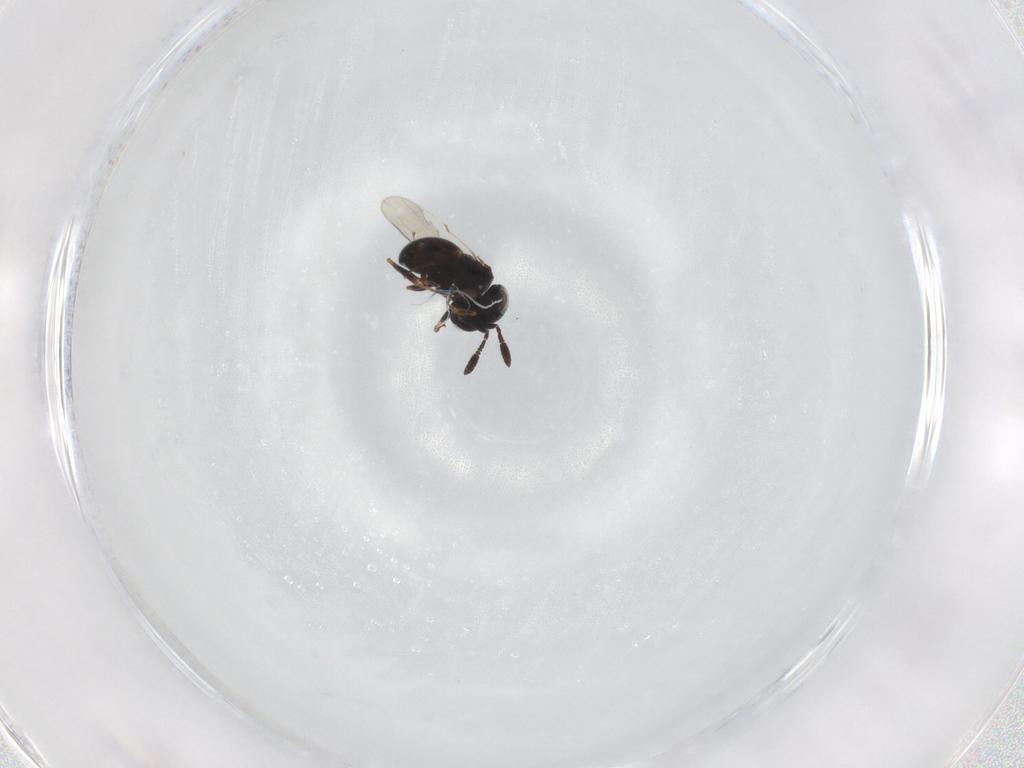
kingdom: Animalia
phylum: Arthropoda
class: Insecta
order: Hymenoptera
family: Scelionidae
